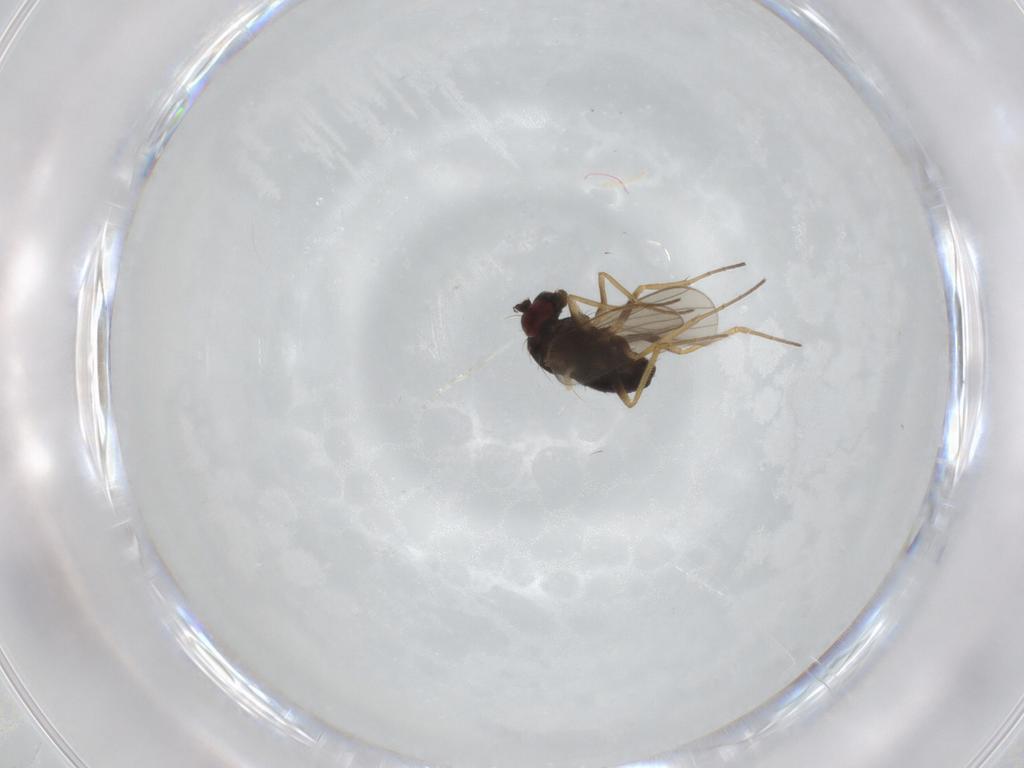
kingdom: Animalia
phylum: Arthropoda
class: Insecta
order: Diptera
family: Dolichopodidae
